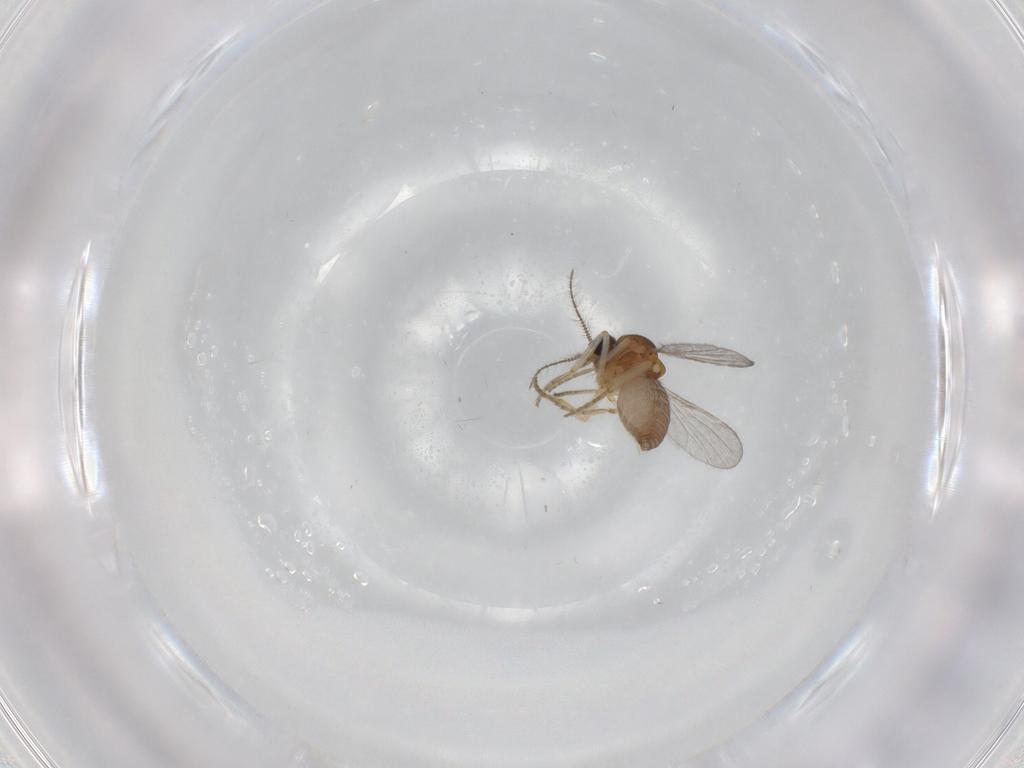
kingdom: Animalia
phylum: Arthropoda
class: Insecta
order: Diptera
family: Ceratopogonidae
